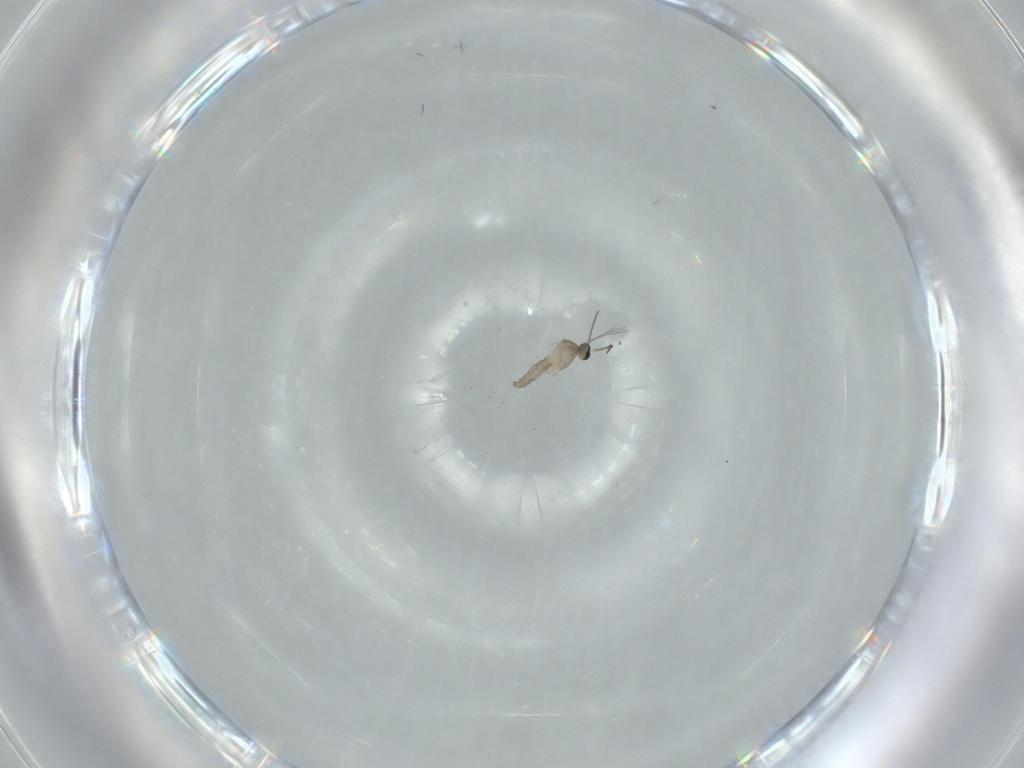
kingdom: Animalia
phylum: Arthropoda
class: Insecta
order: Diptera
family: Cecidomyiidae
